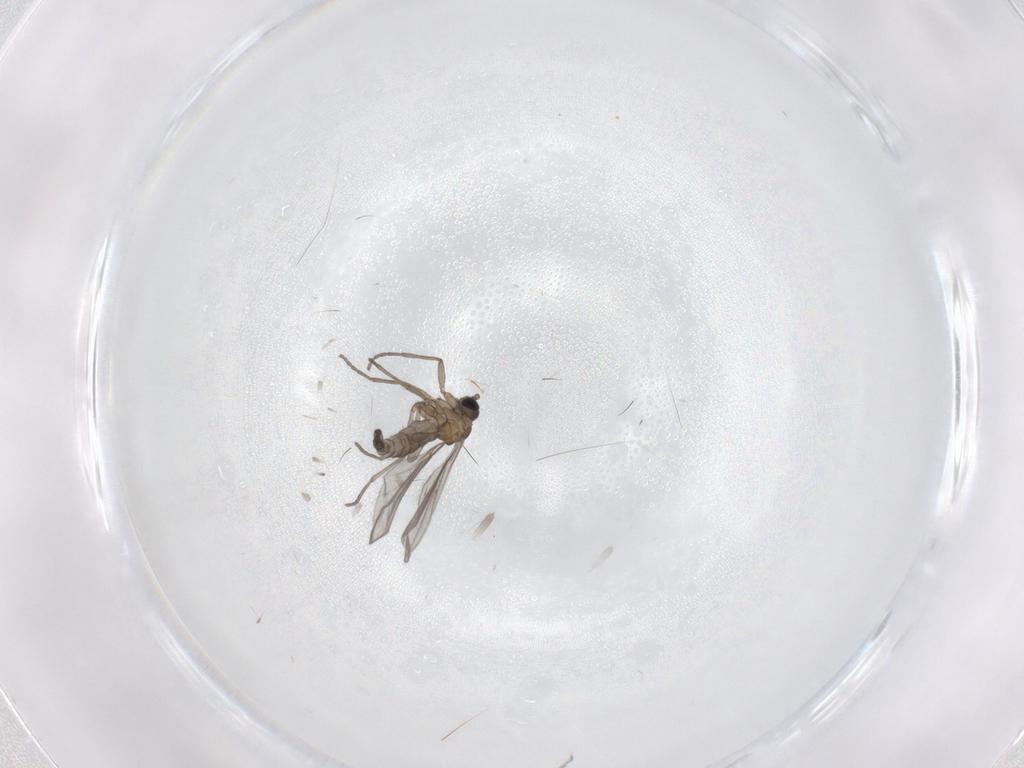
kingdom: Animalia
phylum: Arthropoda
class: Insecta
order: Diptera
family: Sciaridae
